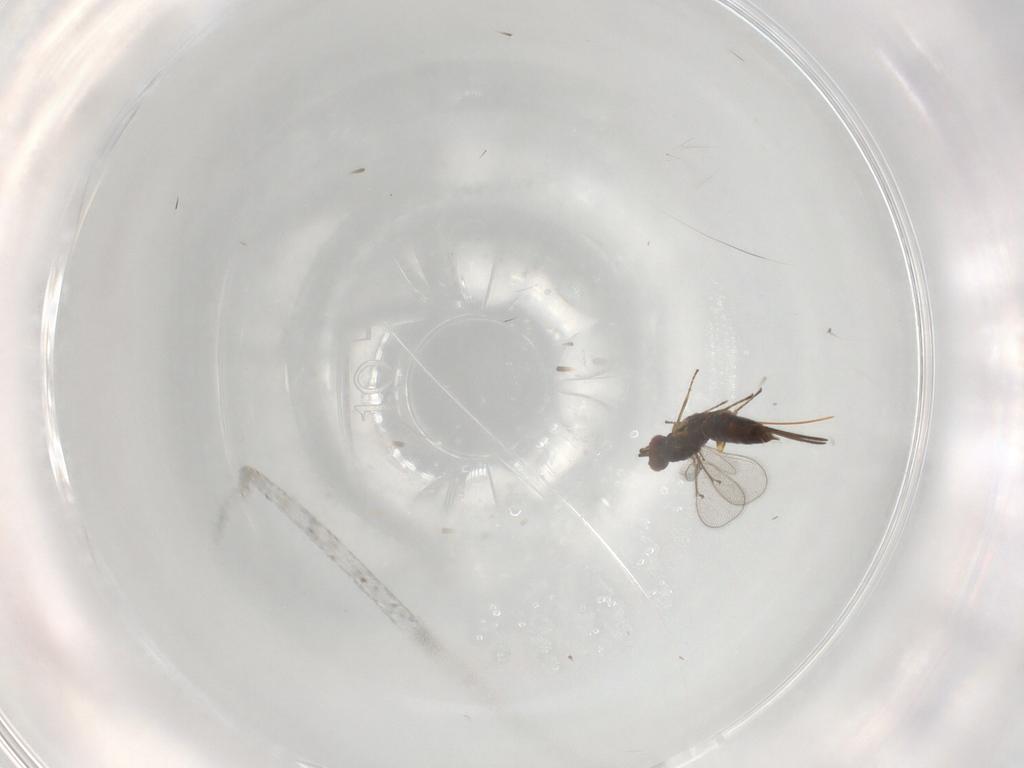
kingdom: Animalia
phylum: Arthropoda
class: Insecta
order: Hymenoptera
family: Eulophidae
